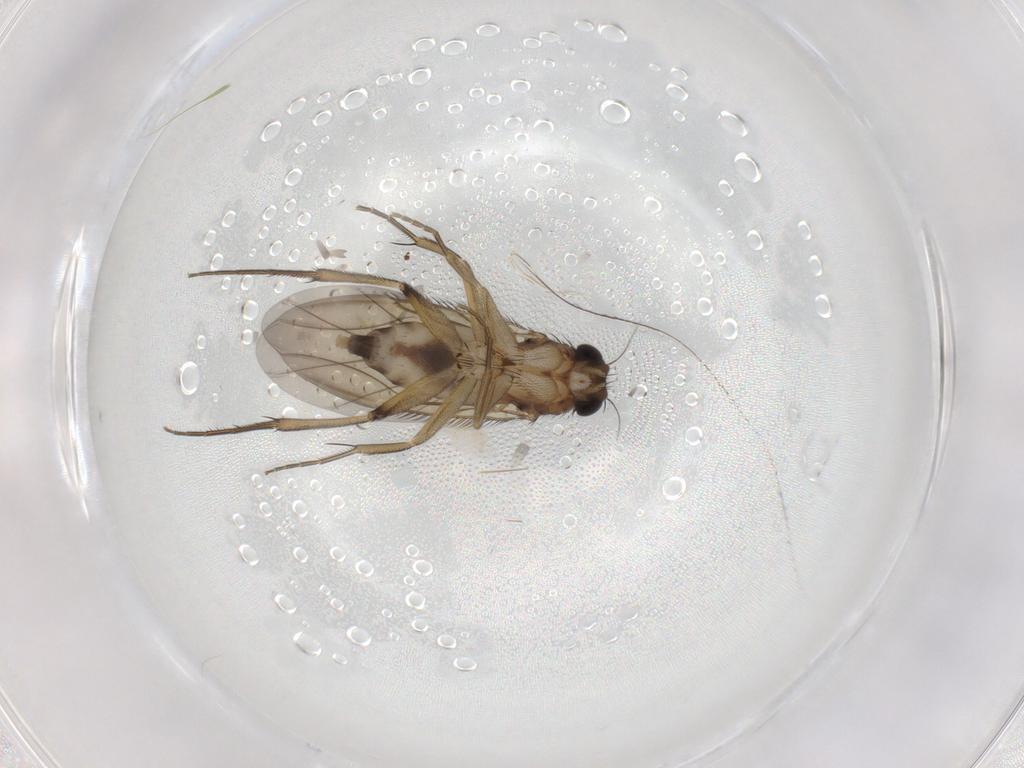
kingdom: Animalia
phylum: Arthropoda
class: Insecta
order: Diptera
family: Phoridae
